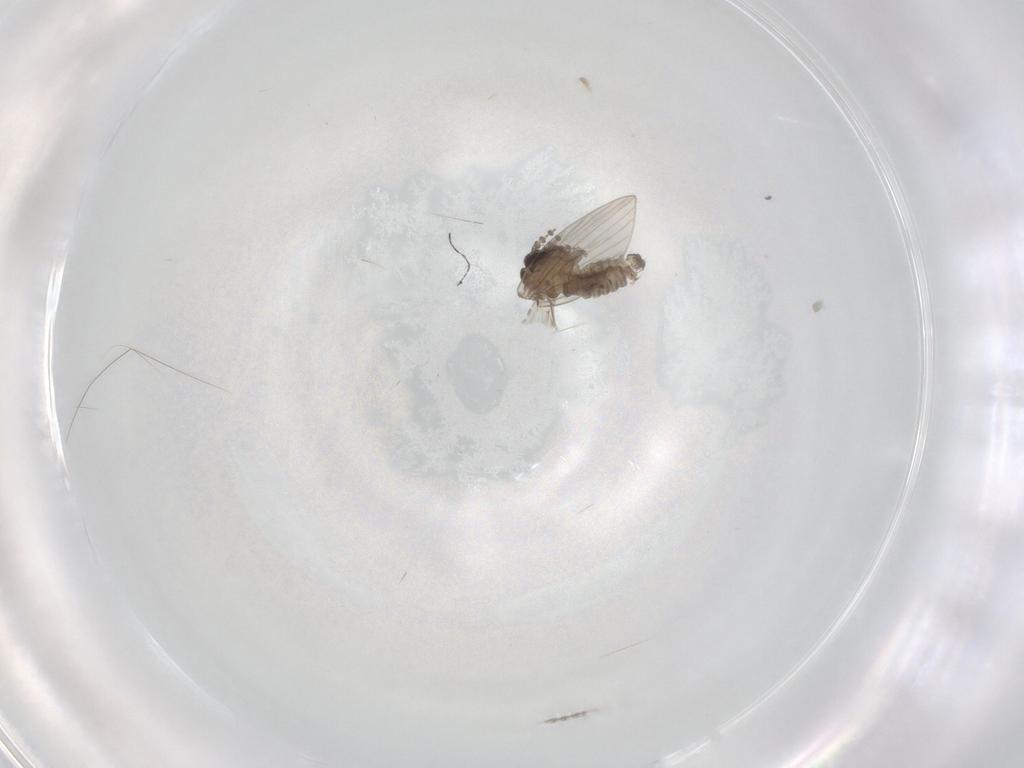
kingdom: Animalia
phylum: Arthropoda
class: Insecta
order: Diptera
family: Psychodidae
